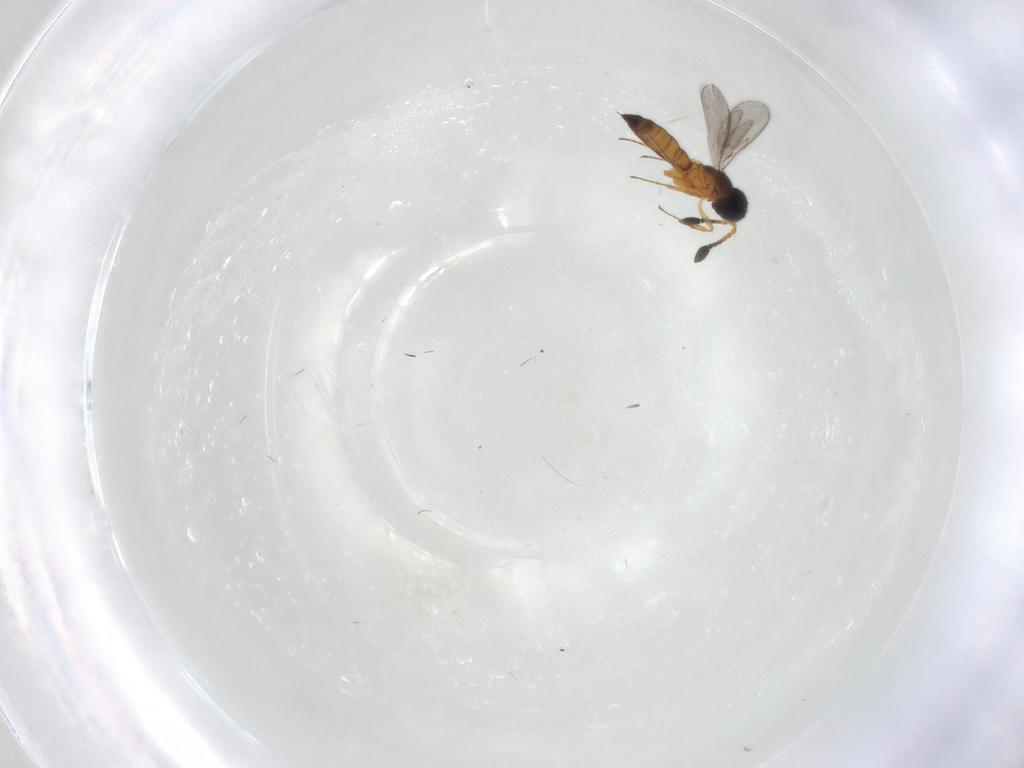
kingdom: Animalia
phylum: Arthropoda
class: Insecta
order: Hymenoptera
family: Scelionidae
